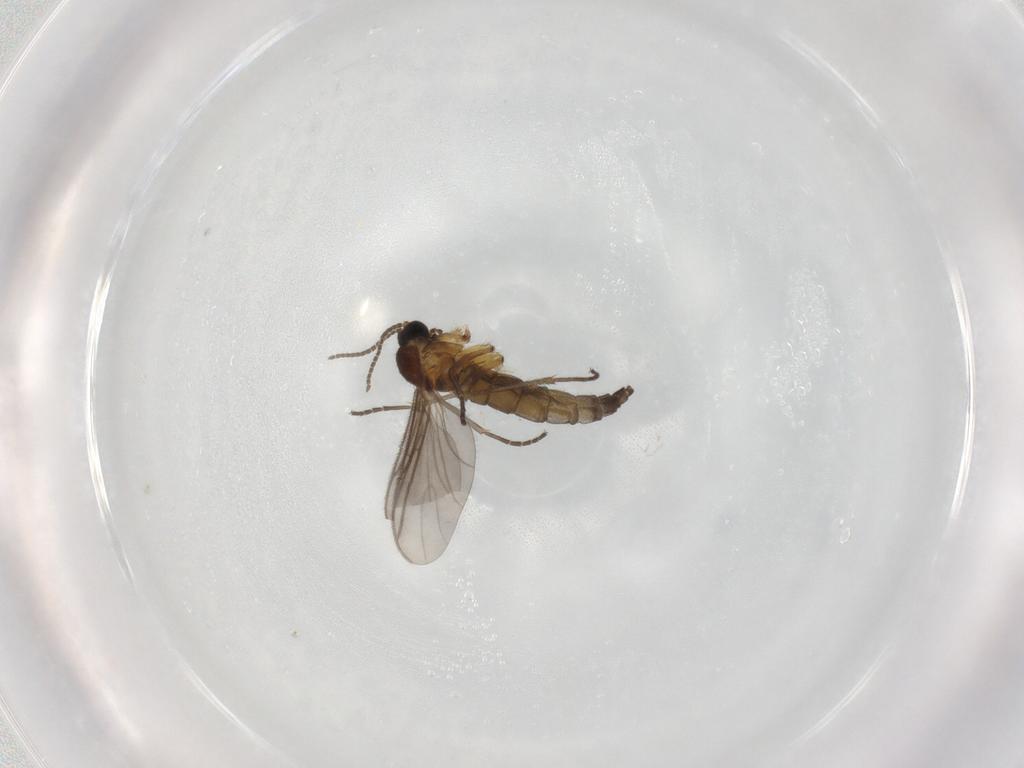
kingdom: Animalia
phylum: Arthropoda
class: Insecta
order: Diptera
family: Sciaridae
